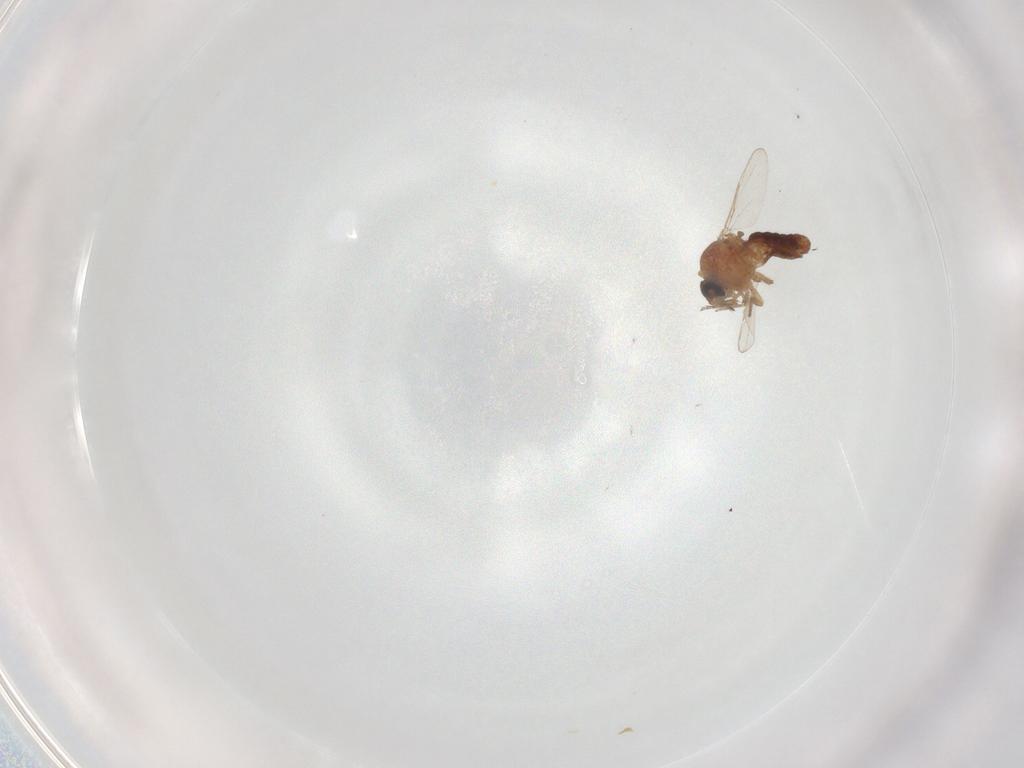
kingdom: Animalia
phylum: Arthropoda
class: Insecta
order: Diptera
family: Ceratopogonidae
